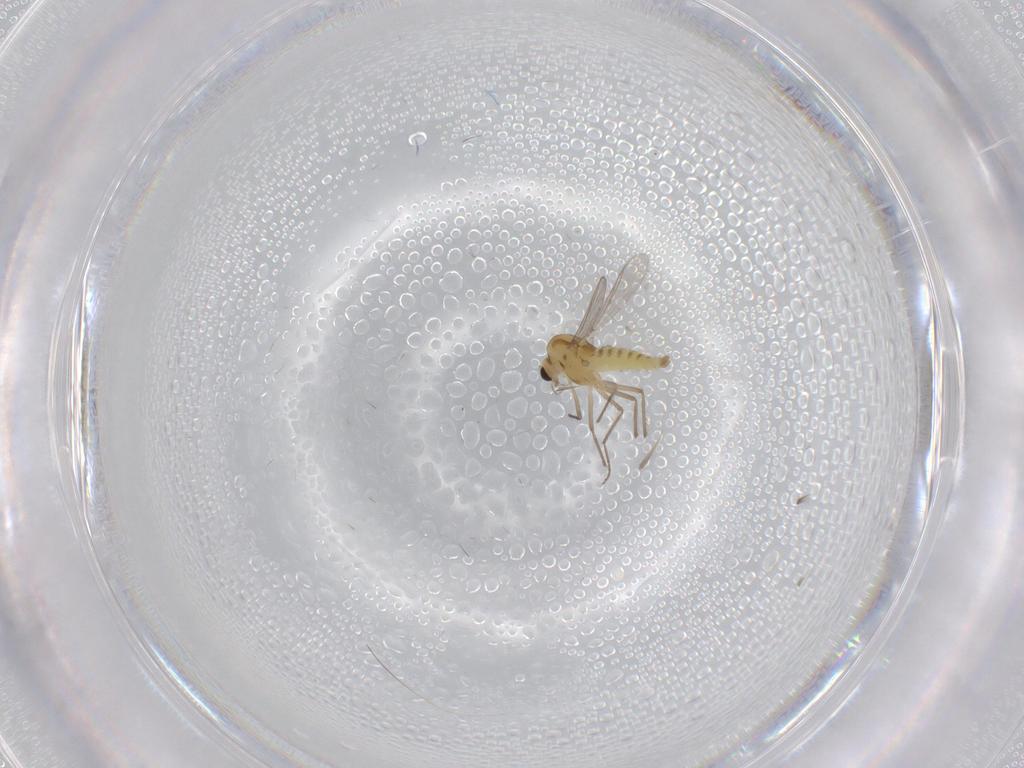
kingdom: Animalia
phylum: Arthropoda
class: Insecta
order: Diptera
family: Chironomidae
